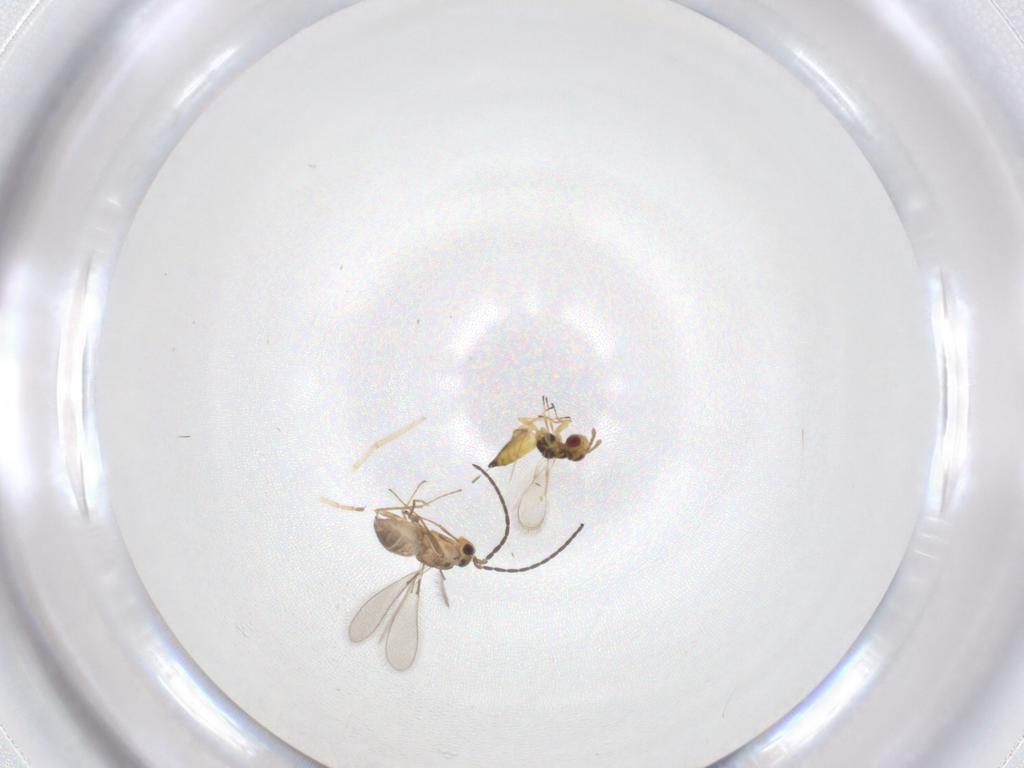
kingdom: Animalia
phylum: Arthropoda
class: Insecta
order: Hymenoptera
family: Eulophidae
